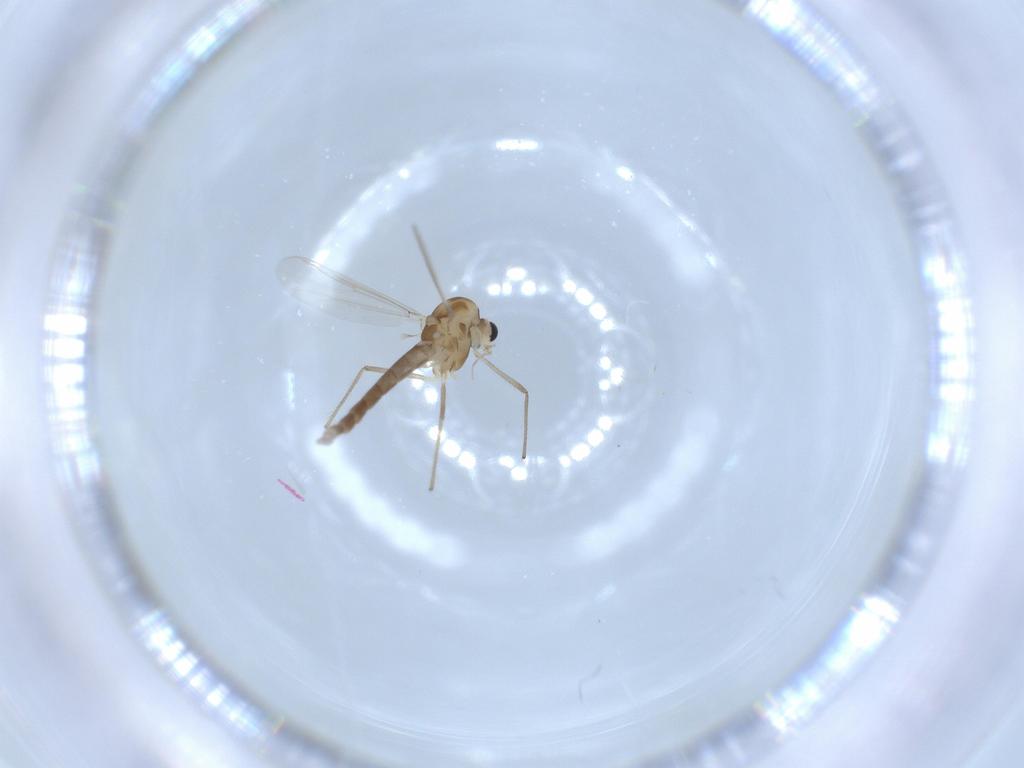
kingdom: Animalia
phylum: Arthropoda
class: Insecta
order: Diptera
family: Chironomidae
